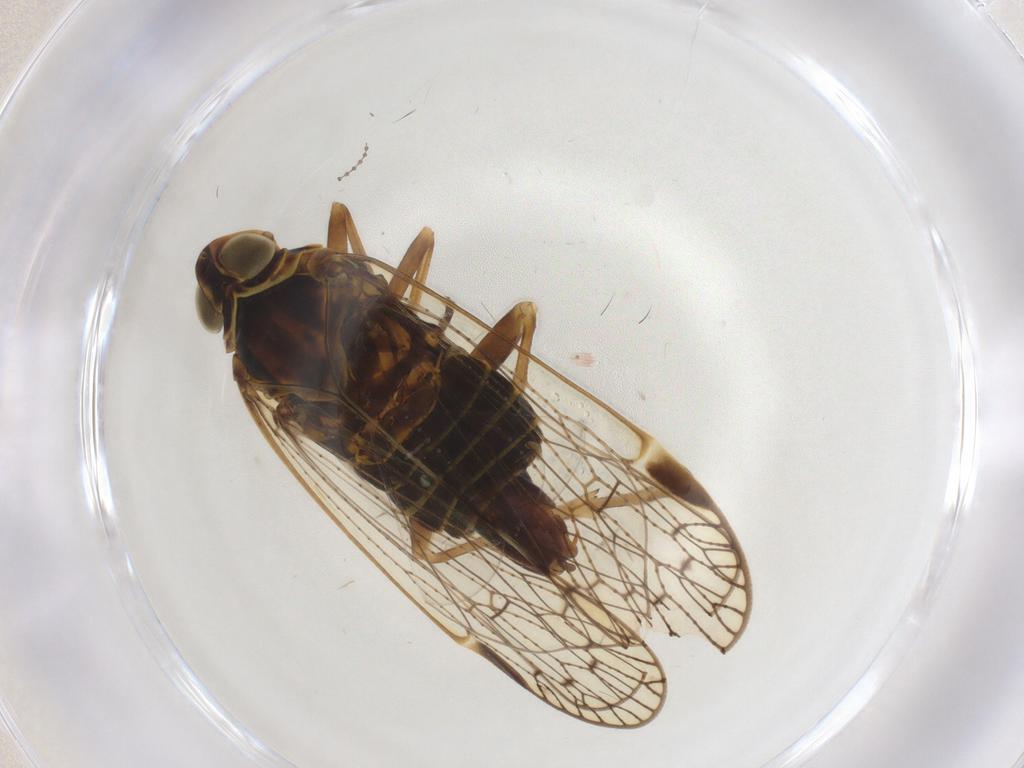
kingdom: Animalia
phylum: Arthropoda
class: Insecta
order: Hemiptera
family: Cixiidae
